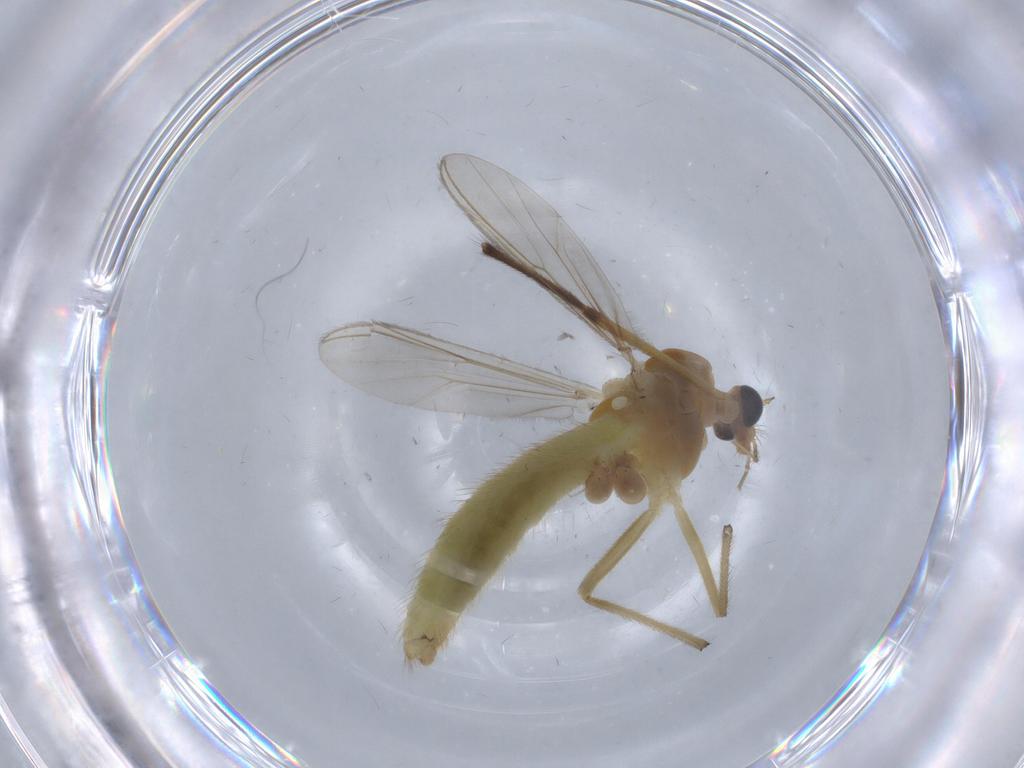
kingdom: Animalia
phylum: Arthropoda
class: Insecta
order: Diptera
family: Chironomidae
